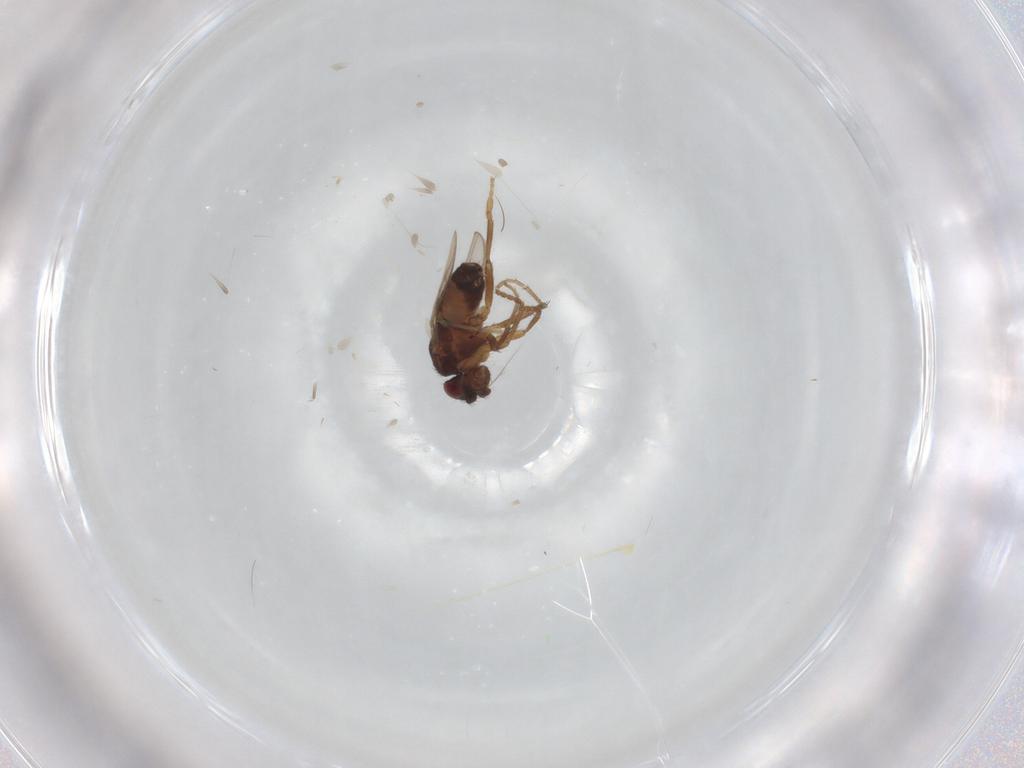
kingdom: Animalia
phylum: Arthropoda
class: Insecta
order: Diptera
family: Sphaeroceridae
